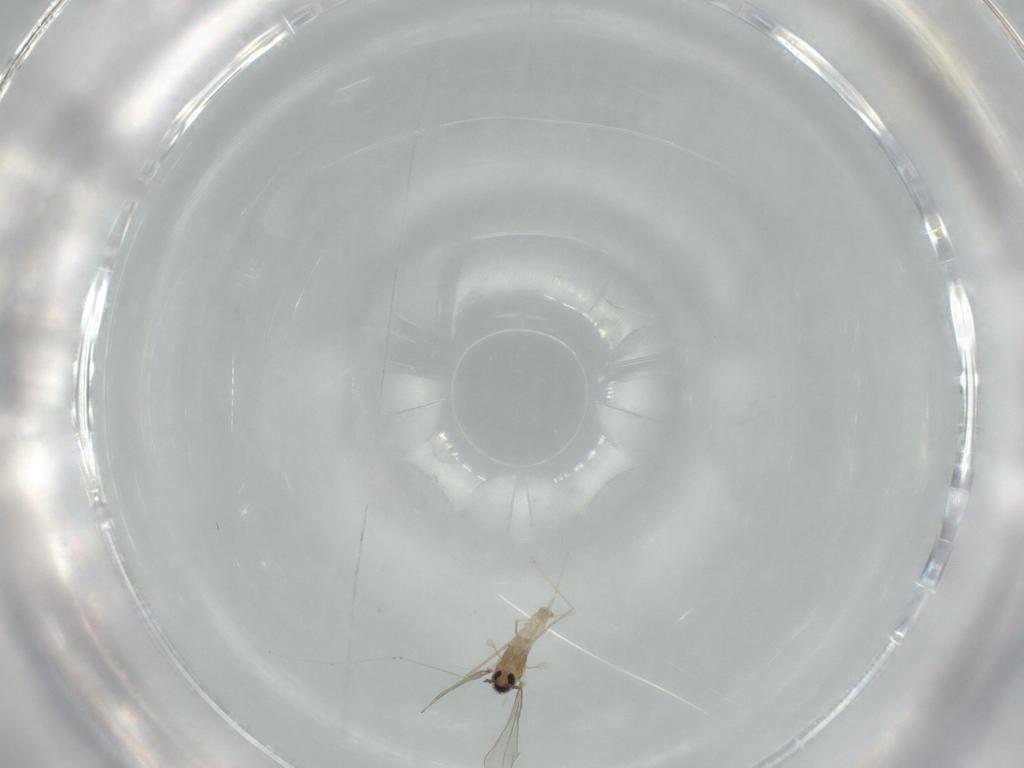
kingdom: Animalia
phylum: Arthropoda
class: Insecta
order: Diptera
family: Cecidomyiidae
